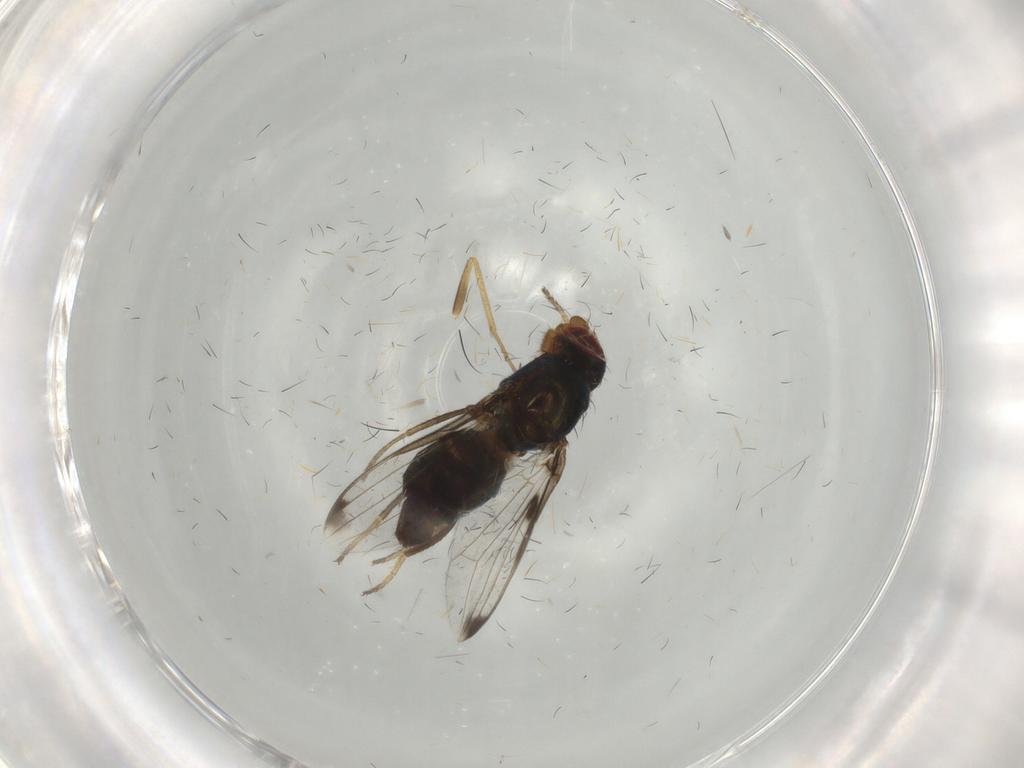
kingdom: Animalia
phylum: Arthropoda
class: Insecta
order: Diptera
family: Ulidiidae
